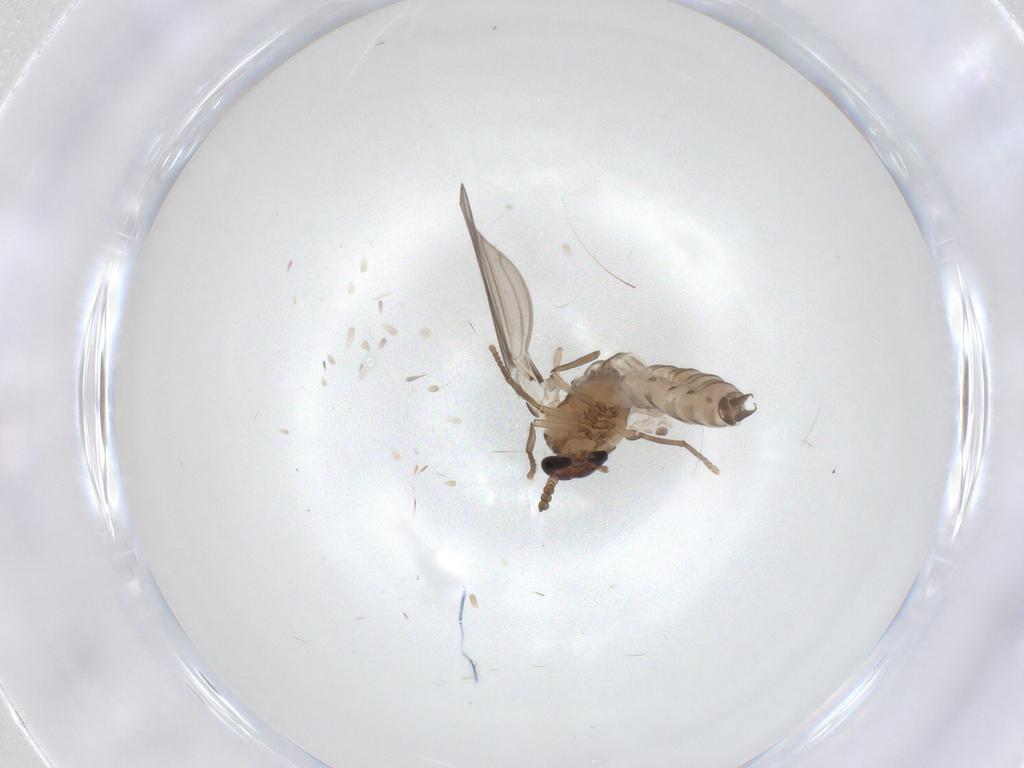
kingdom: Animalia
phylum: Arthropoda
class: Insecta
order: Diptera
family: Psychodidae
